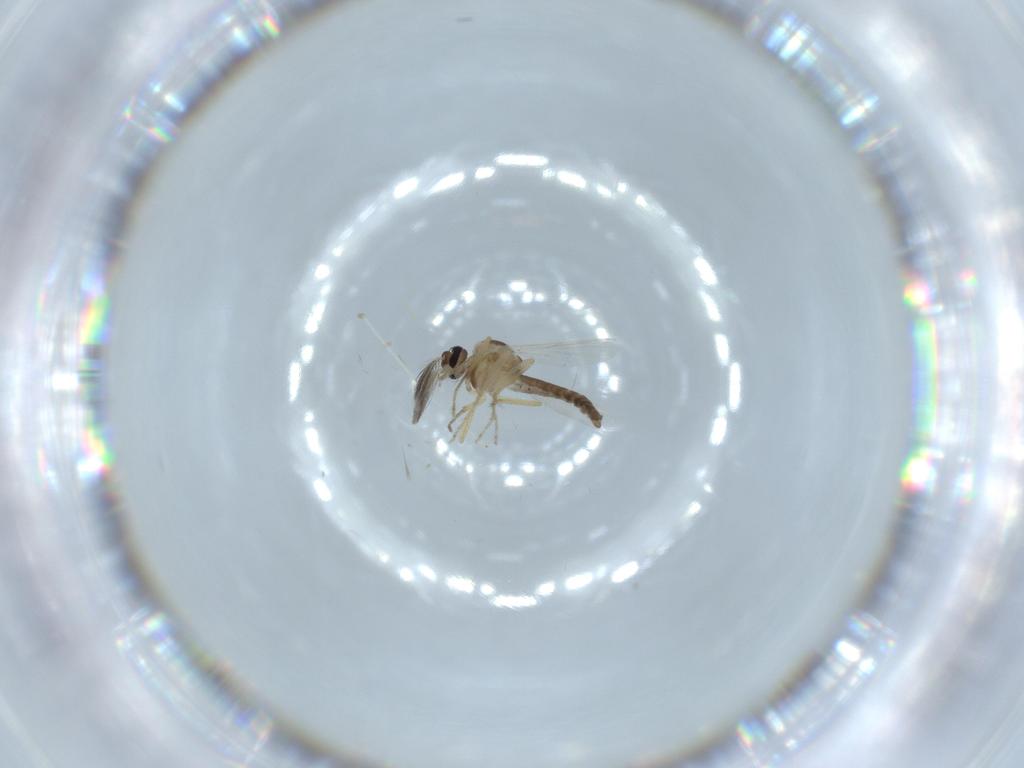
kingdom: Animalia
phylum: Arthropoda
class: Insecta
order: Diptera
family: Ceratopogonidae
